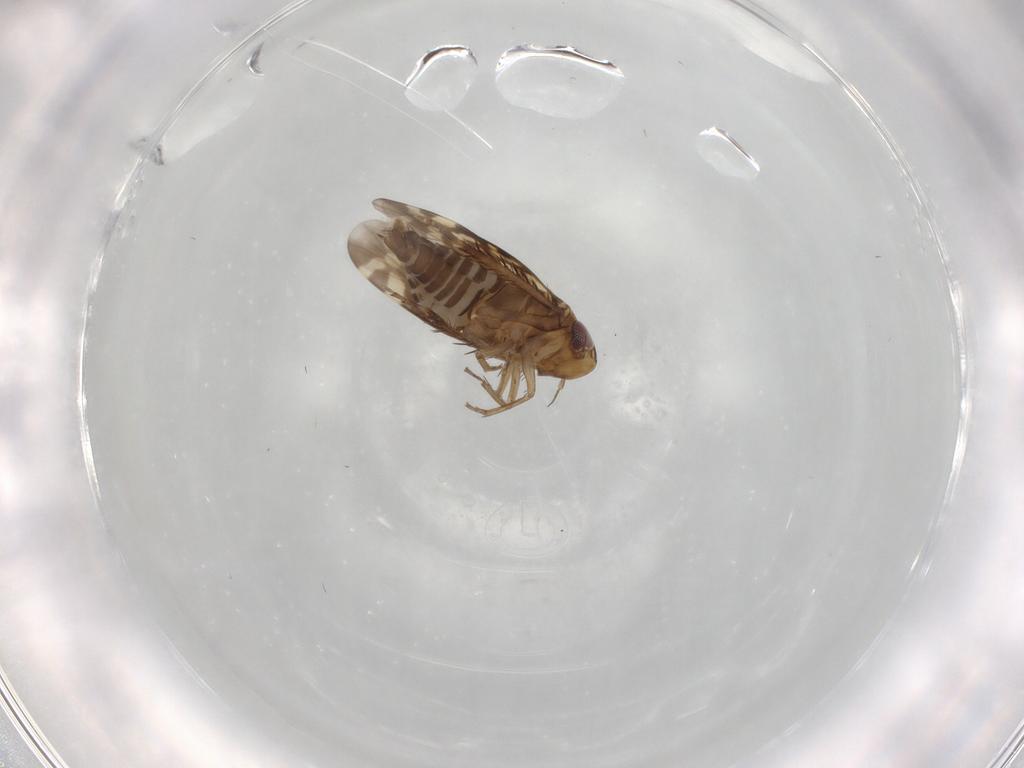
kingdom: Animalia
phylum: Arthropoda
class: Insecta
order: Hemiptera
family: Cicadellidae
